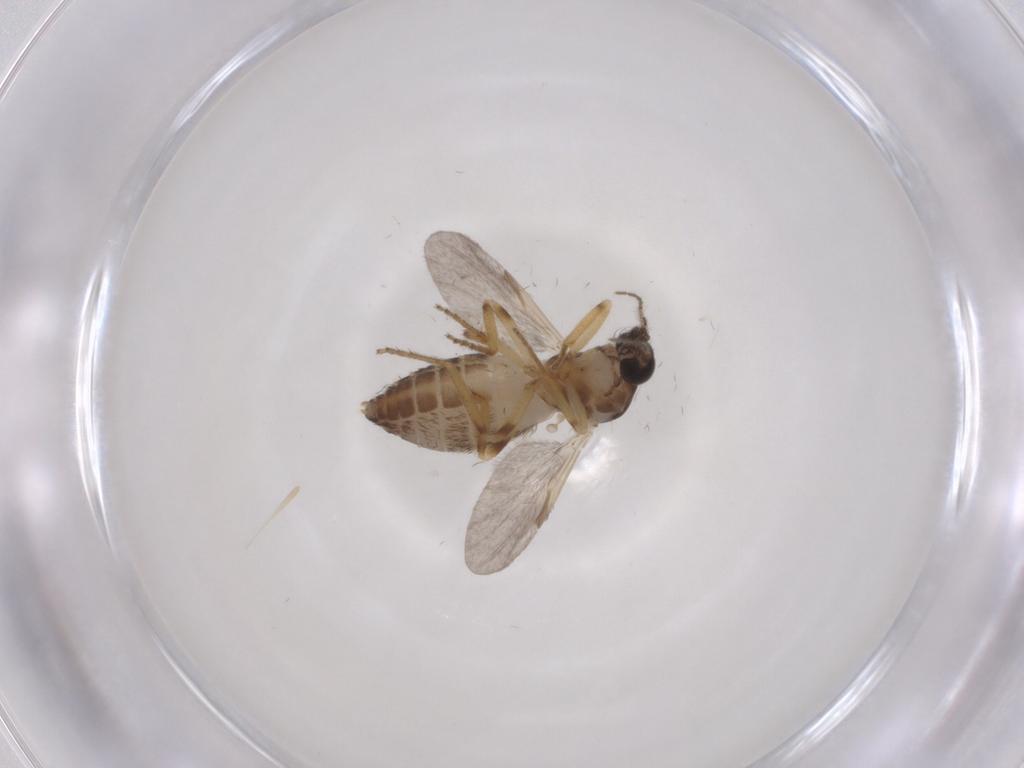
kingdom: Animalia
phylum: Arthropoda
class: Insecta
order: Diptera
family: Ceratopogonidae
